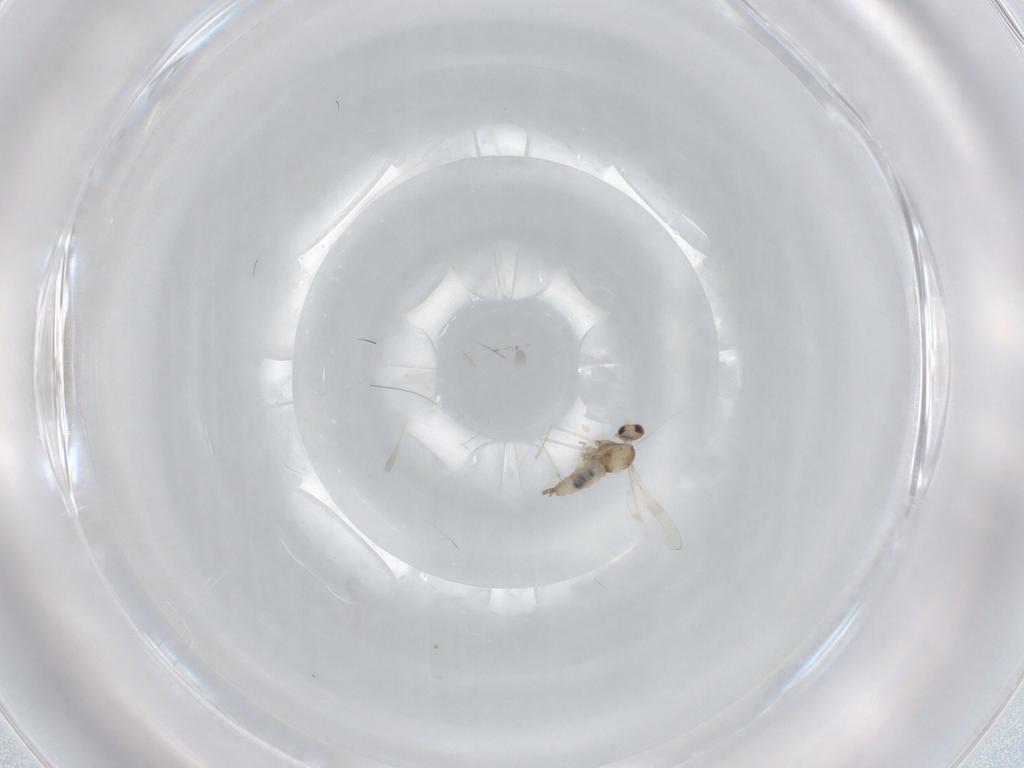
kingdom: Animalia
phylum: Arthropoda
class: Insecta
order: Diptera
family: Cecidomyiidae
